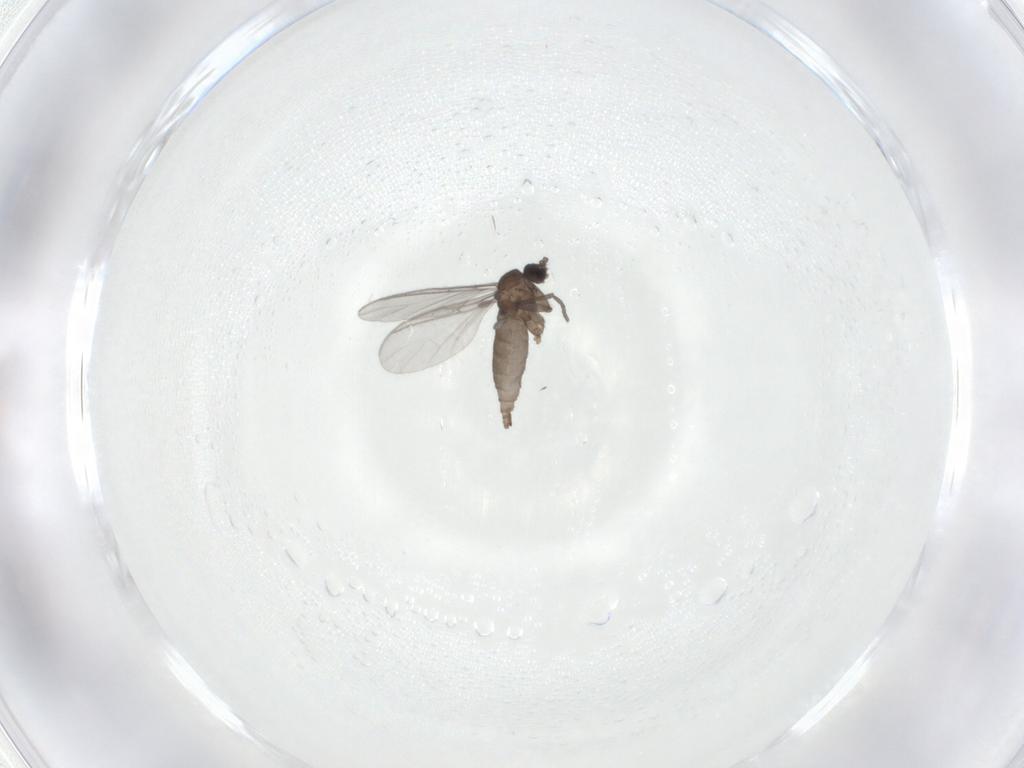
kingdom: Animalia
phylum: Arthropoda
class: Insecta
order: Diptera
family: Sciaridae
